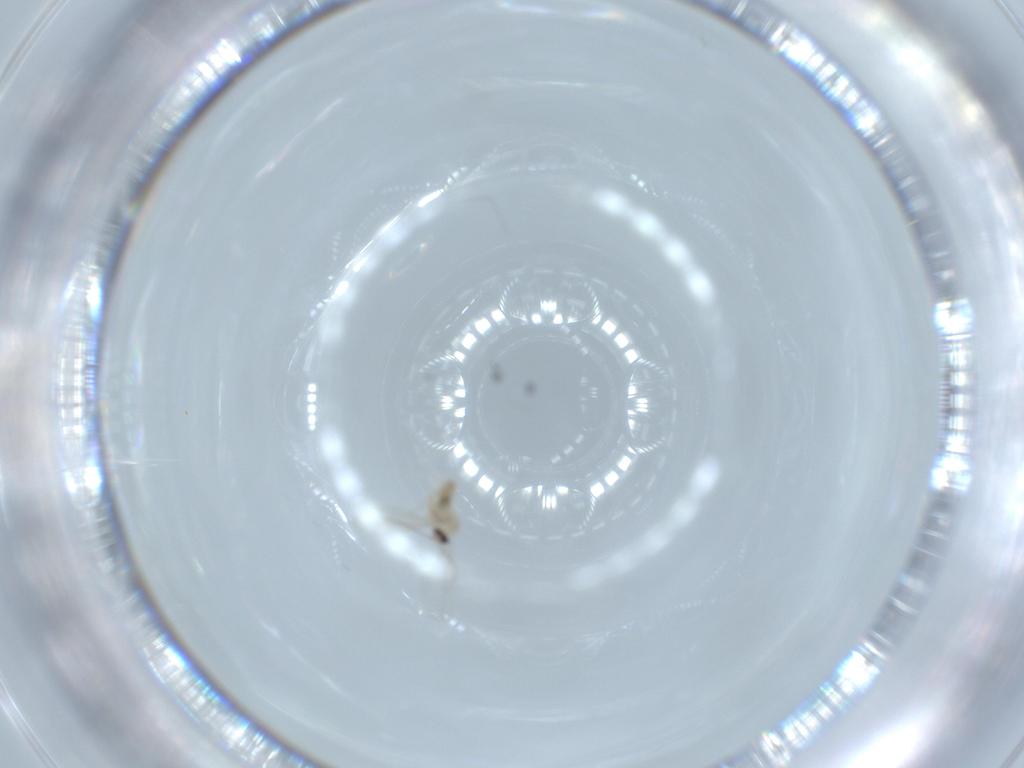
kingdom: Animalia
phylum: Arthropoda
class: Insecta
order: Diptera
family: Cecidomyiidae
